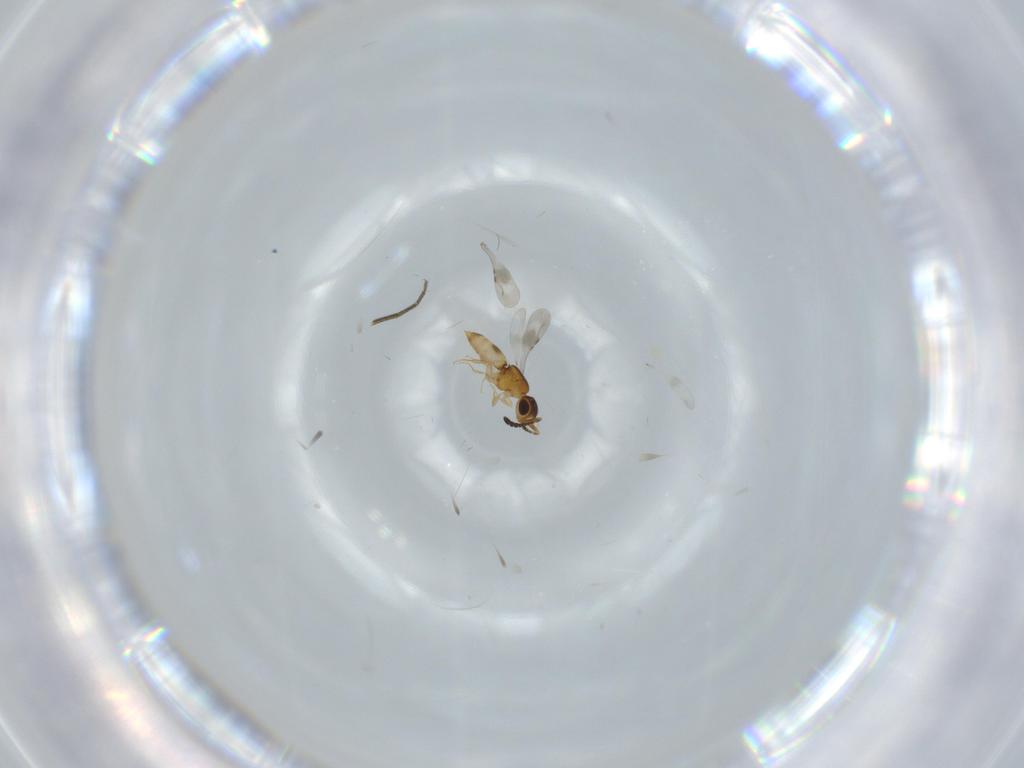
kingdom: Animalia
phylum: Arthropoda
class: Insecta
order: Hymenoptera
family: Ceraphronidae
